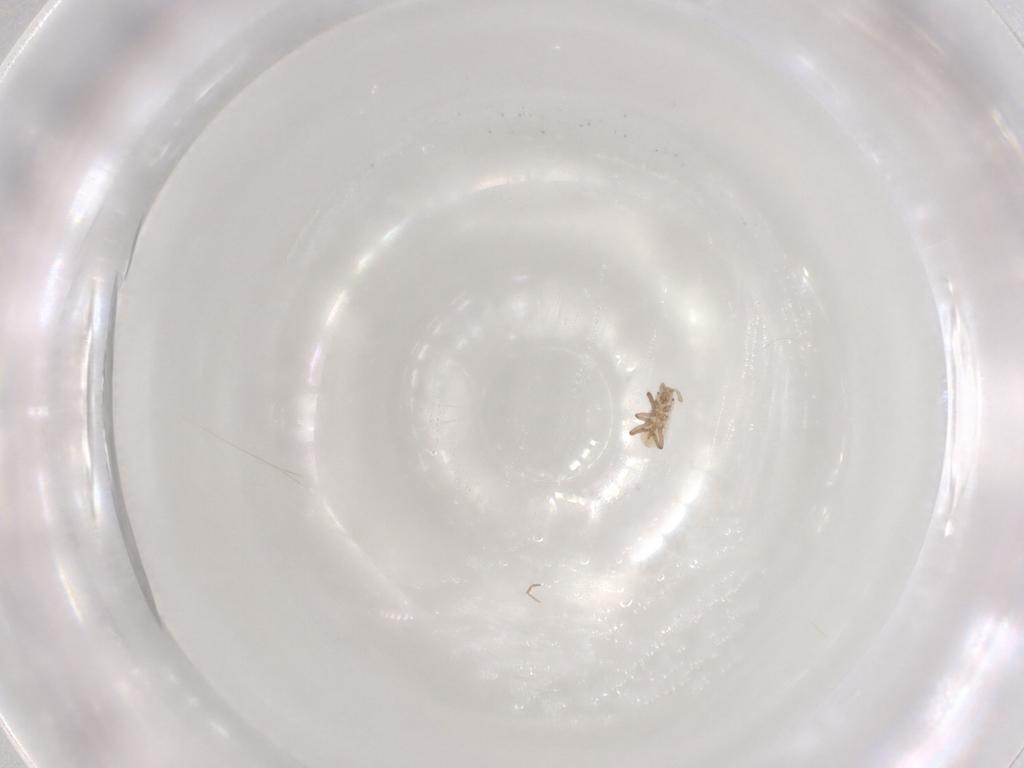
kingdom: Animalia
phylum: Arthropoda
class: Insecta
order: Hemiptera
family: Aphididae
